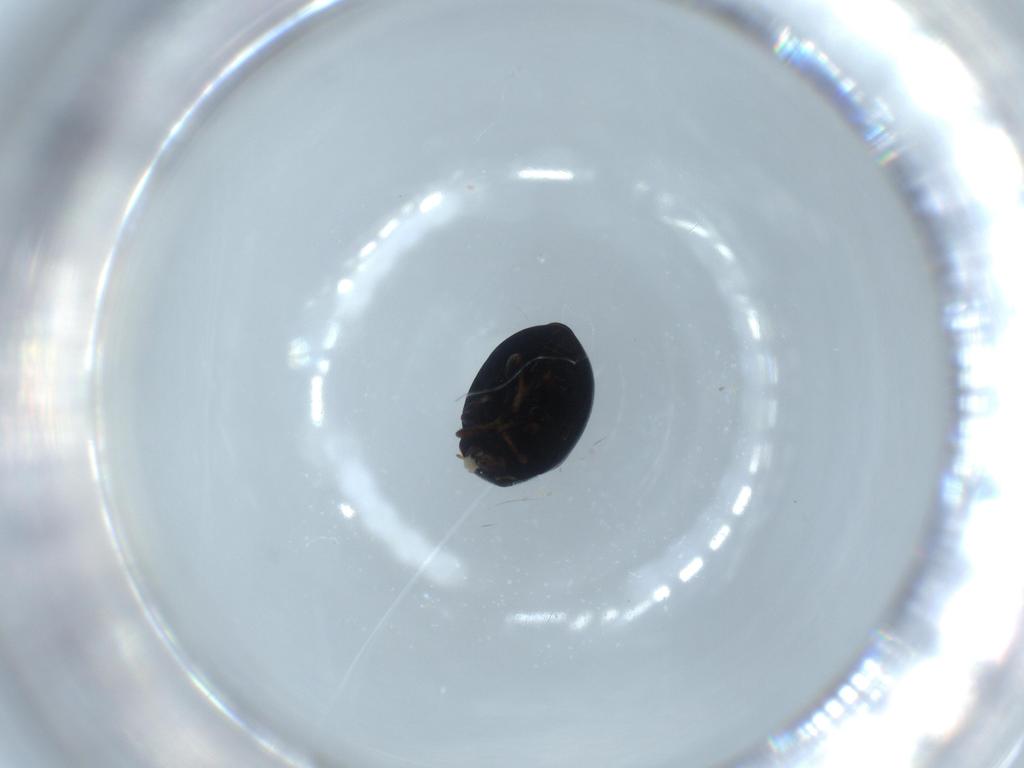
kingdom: Animalia
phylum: Arthropoda
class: Insecta
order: Coleoptera
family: Coccinellidae
